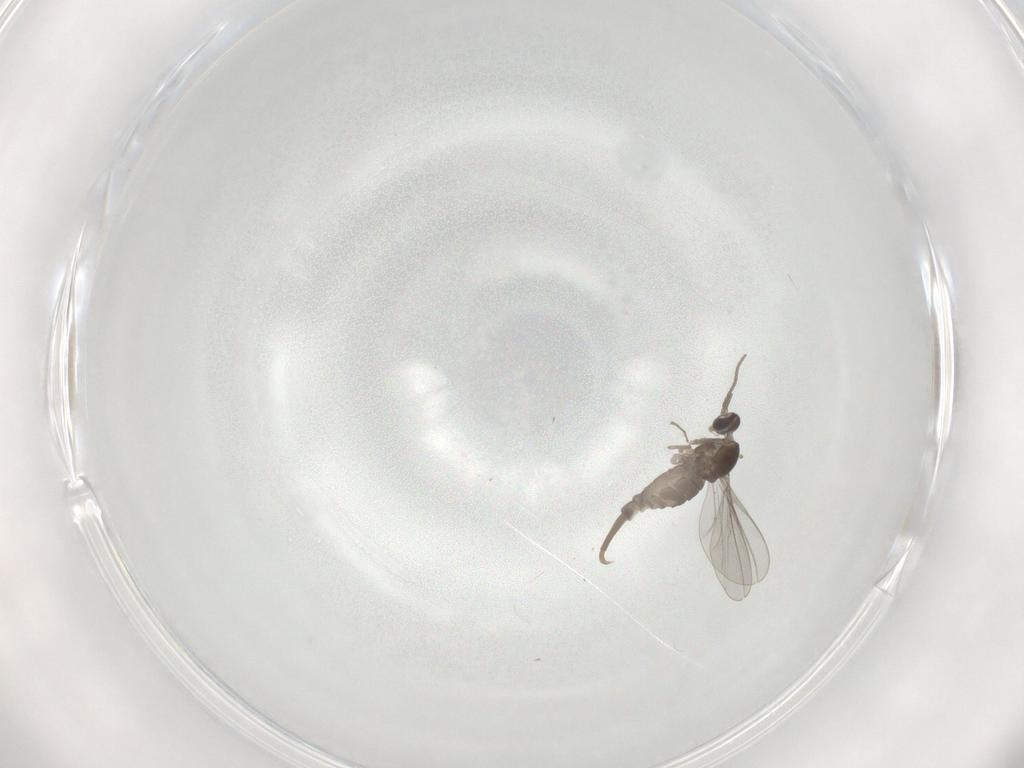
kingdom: Animalia
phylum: Arthropoda
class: Insecta
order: Diptera
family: Cecidomyiidae
